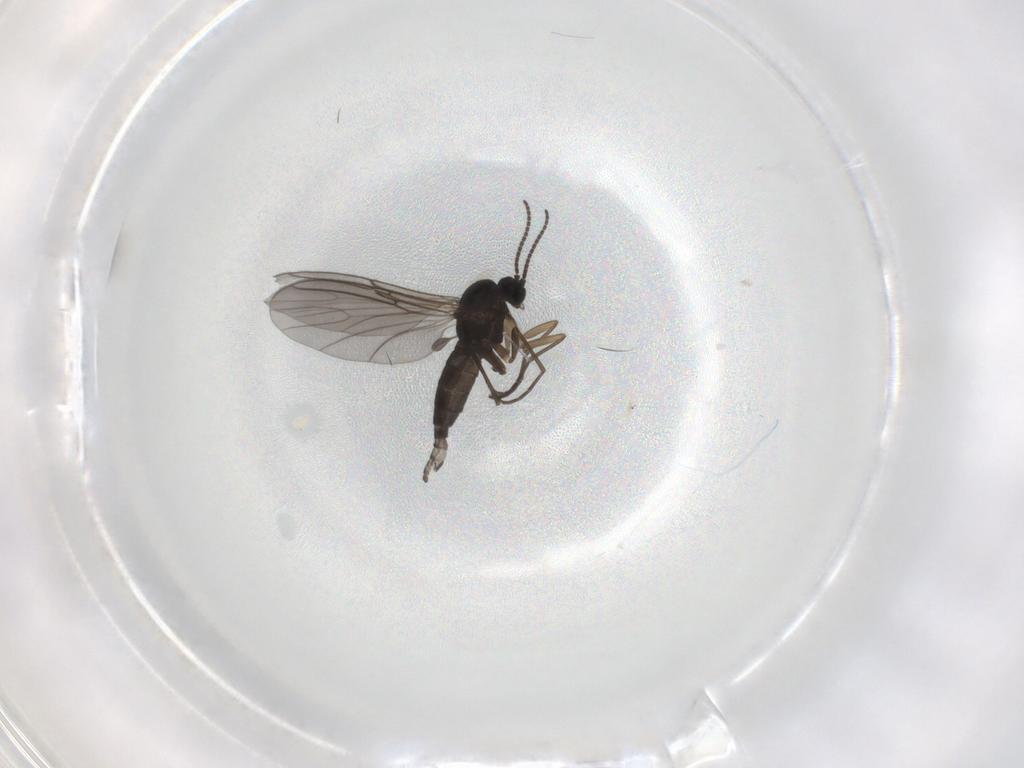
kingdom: Animalia
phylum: Arthropoda
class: Insecta
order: Diptera
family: Sciaridae
